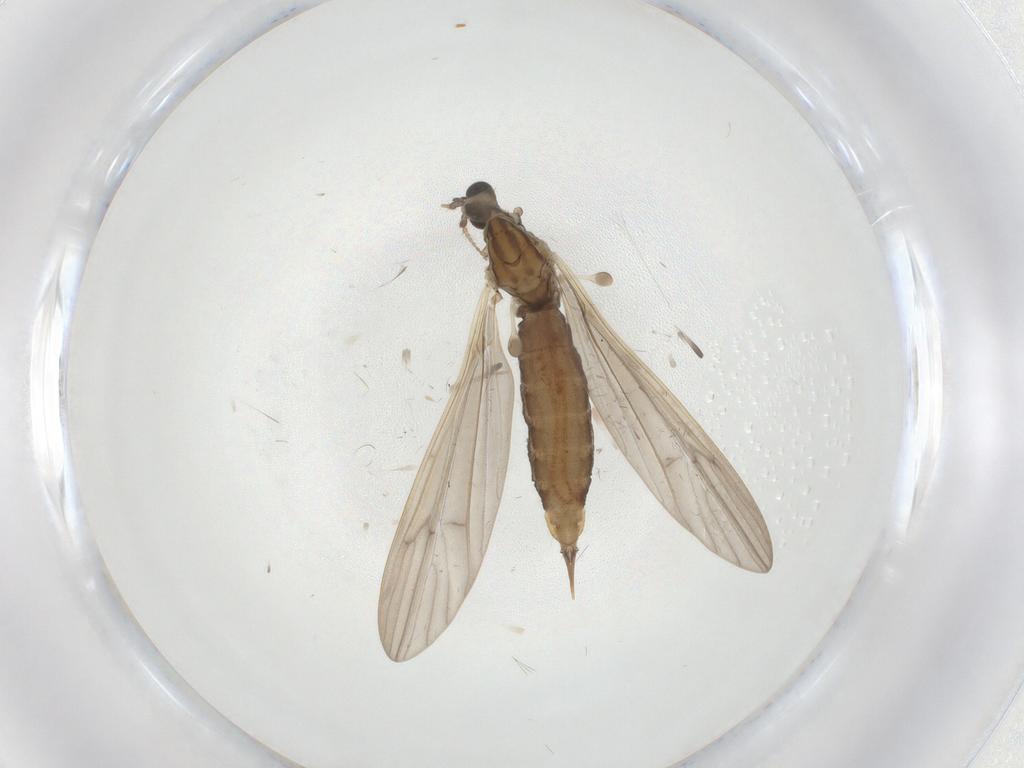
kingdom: Animalia
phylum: Arthropoda
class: Insecta
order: Diptera
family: Limoniidae
